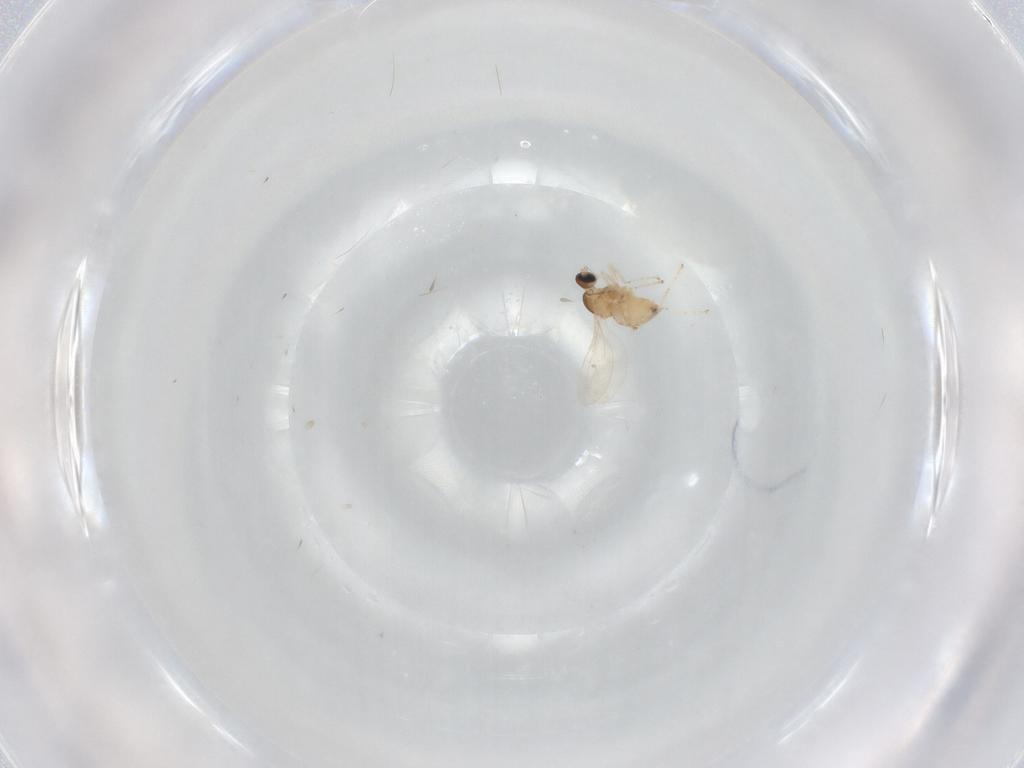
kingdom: Animalia
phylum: Arthropoda
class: Insecta
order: Diptera
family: Cecidomyiidae
